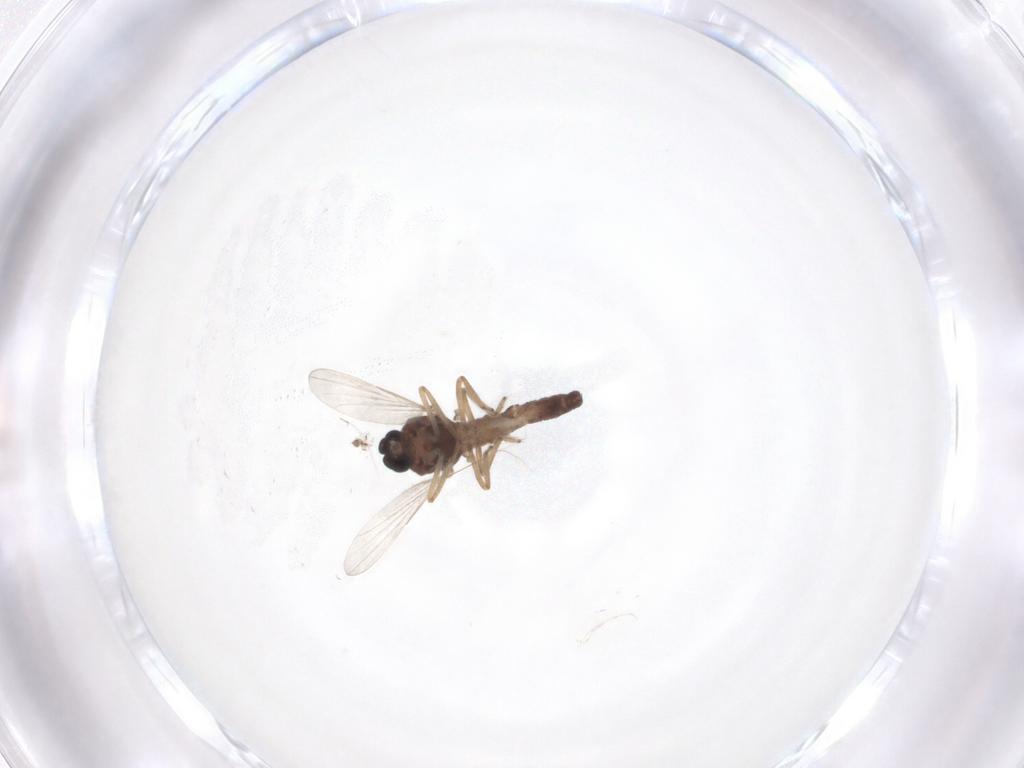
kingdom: Animalia
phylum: Arthropoda
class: Insecta
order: Diptera
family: Ceratopogonidae
